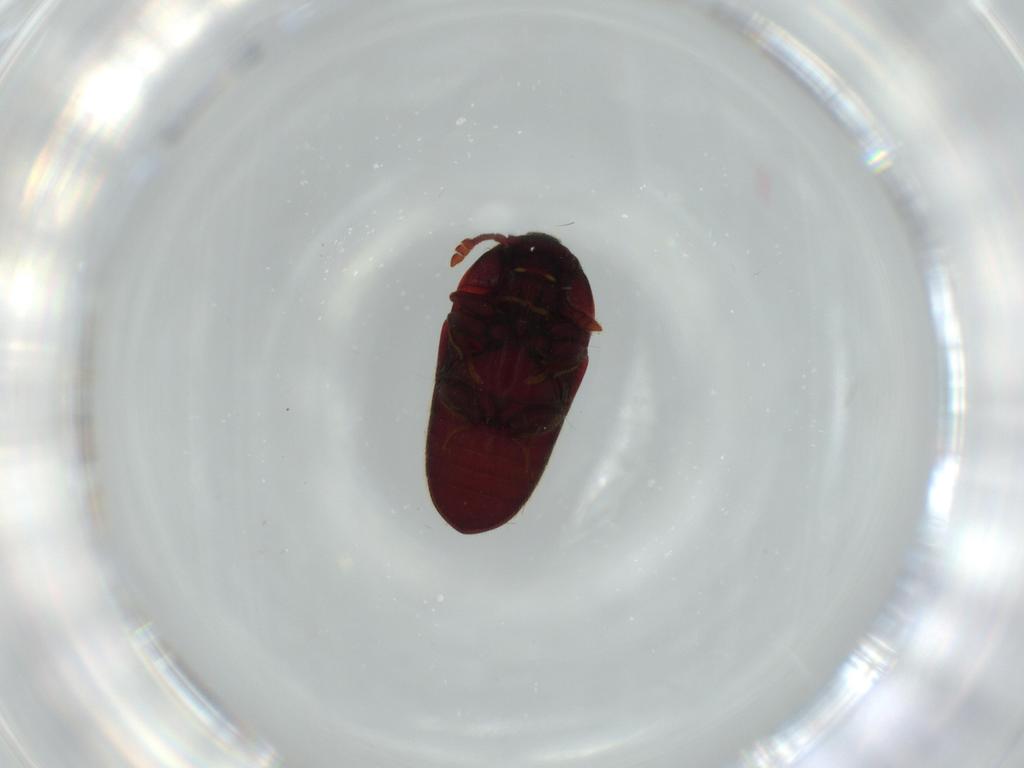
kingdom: Animalia
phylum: Arthropoda
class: Insecta
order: Coleoptera
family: Throscidae
